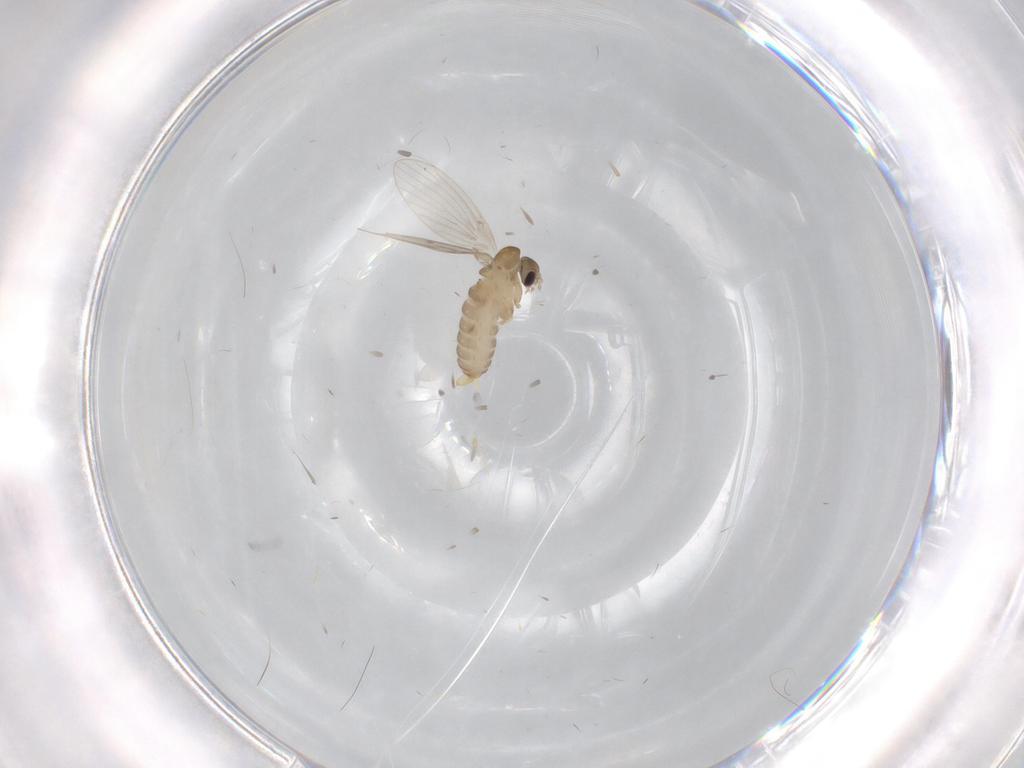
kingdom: Animalia
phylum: Arthropoda
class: Insecta
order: Diptera
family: Psychodidae
